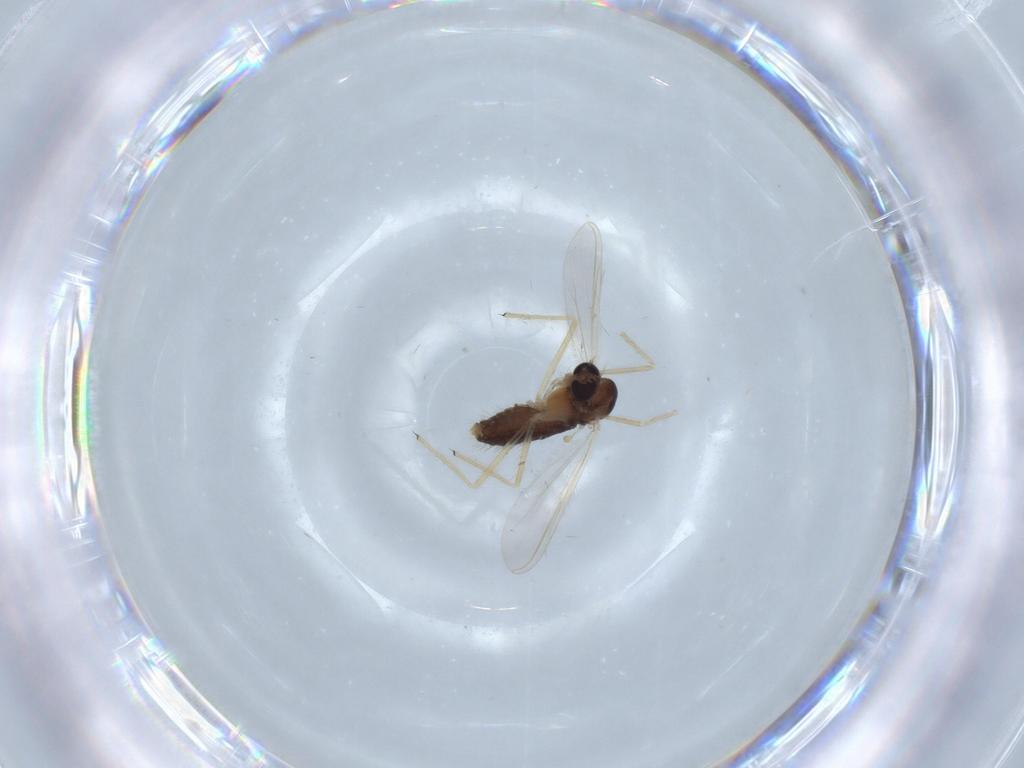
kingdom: Animalia
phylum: Arthropoda
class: Insecta
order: Diptera
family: Chironomidae
